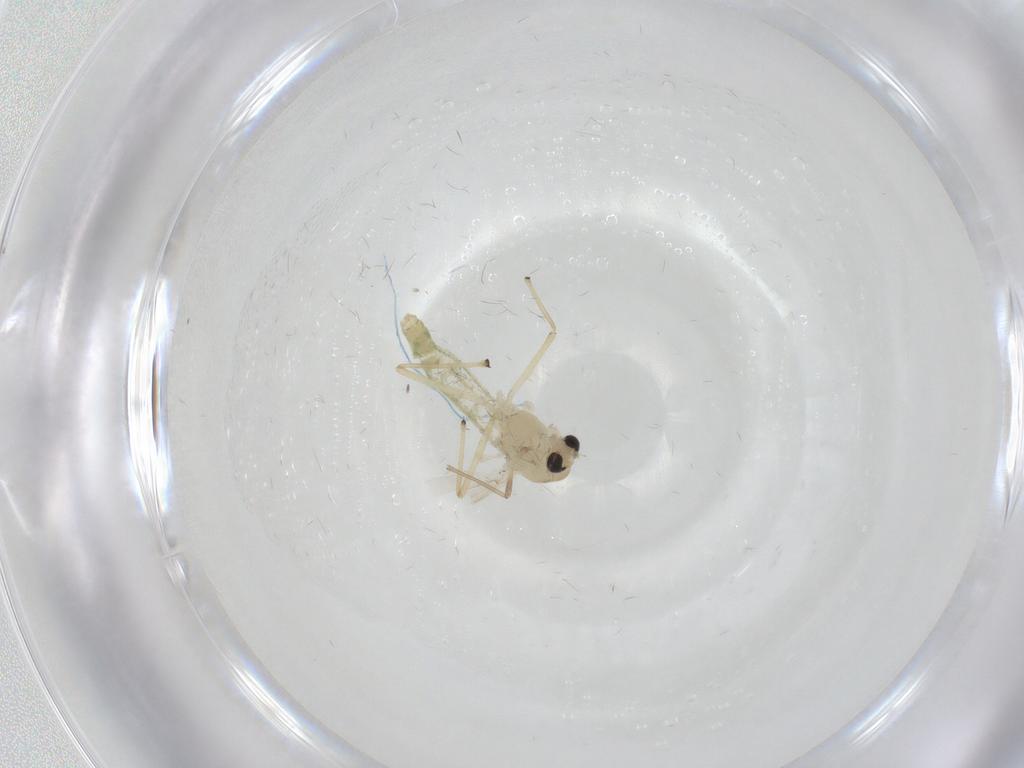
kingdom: Animalia
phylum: Arthropoda
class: Insecta
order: Diptera
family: Chironomidae
